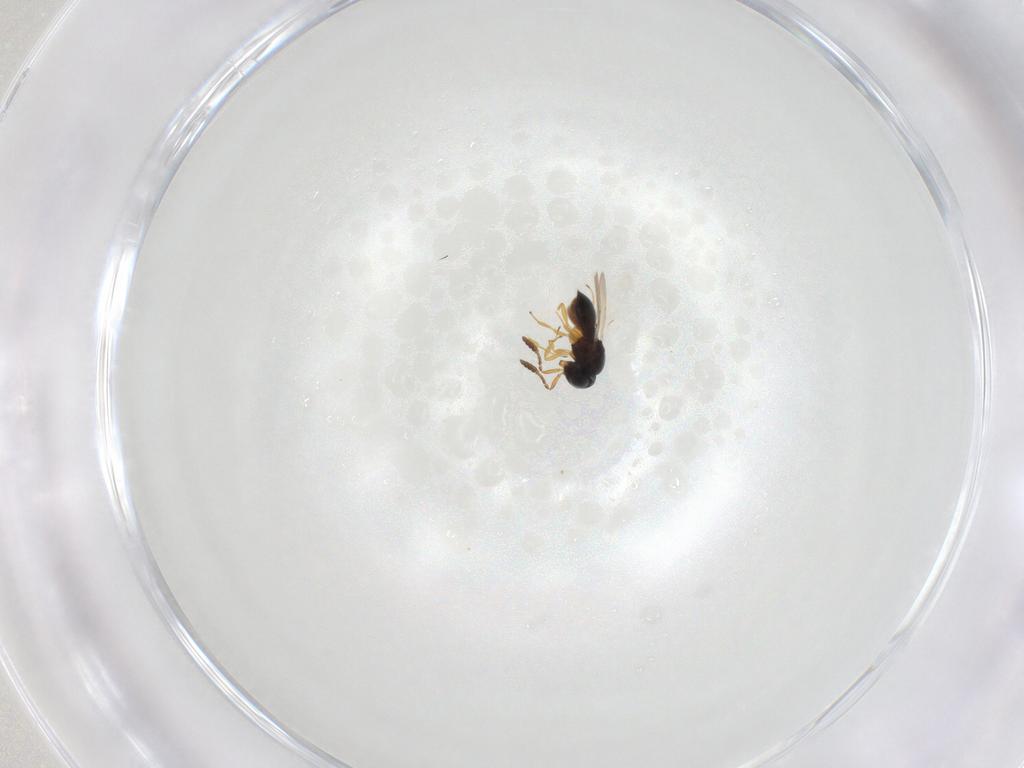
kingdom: Animalia
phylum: Arthropoda
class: Insecta
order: Hymenoptera
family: Scelionidae
